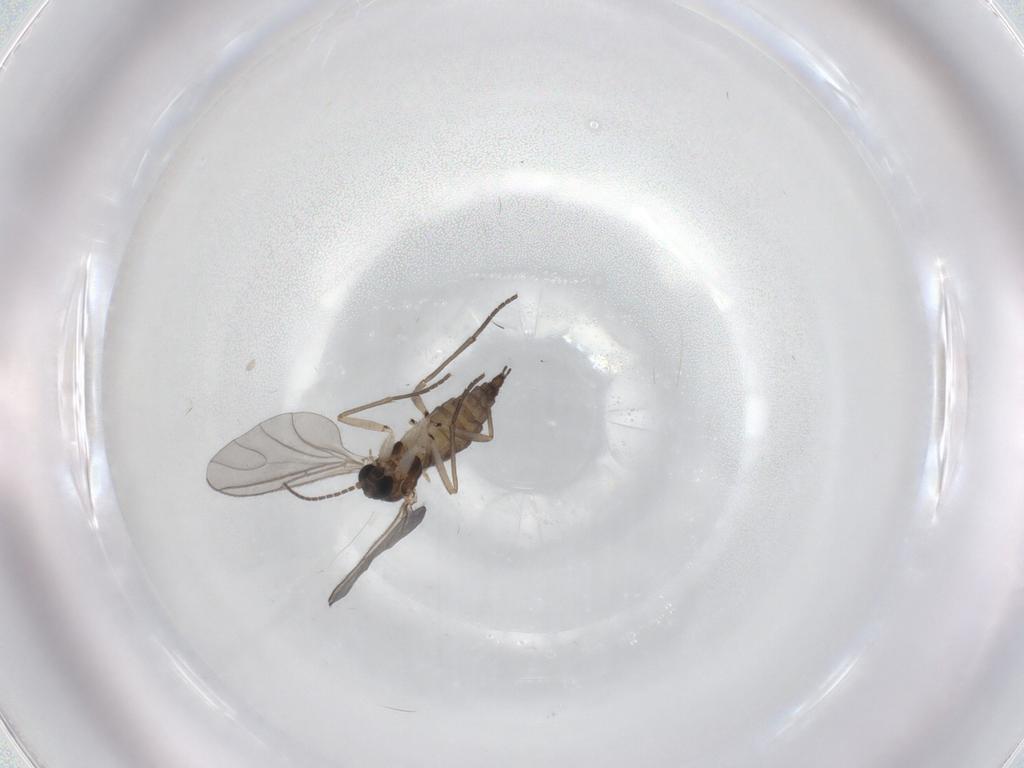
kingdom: Animalia
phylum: Arthropoda
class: Insecta
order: Diptera
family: Sciaridae
